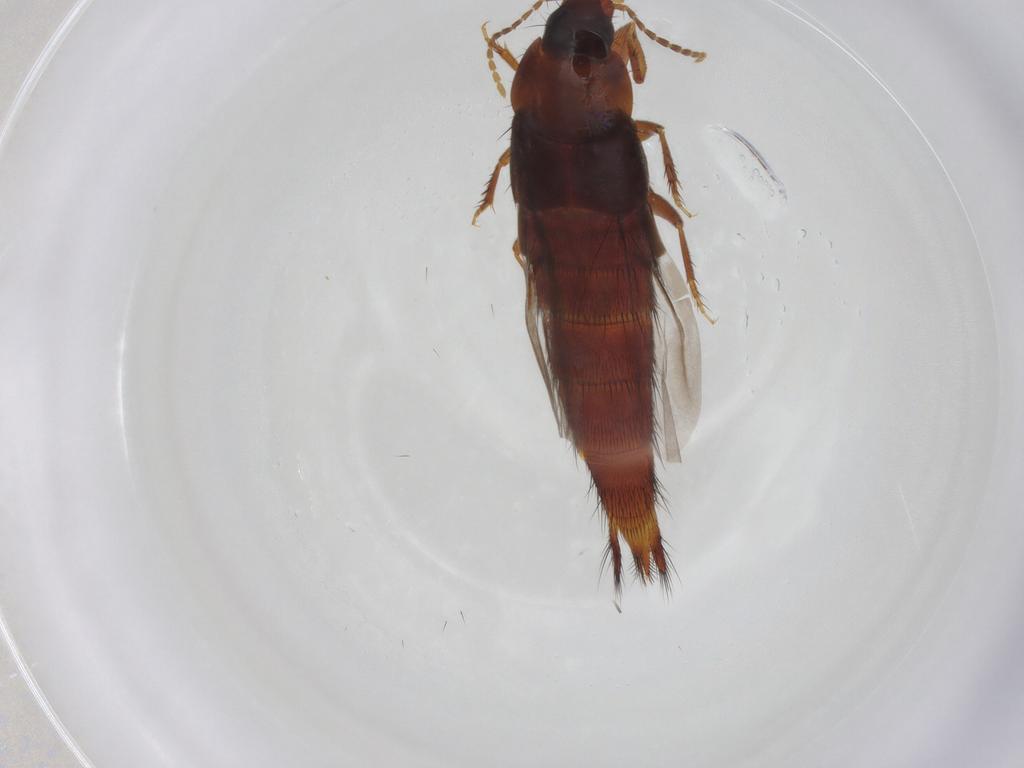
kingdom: Animalia
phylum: Arthropoda
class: Insecta
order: Coleoptera
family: Staphylinidae
